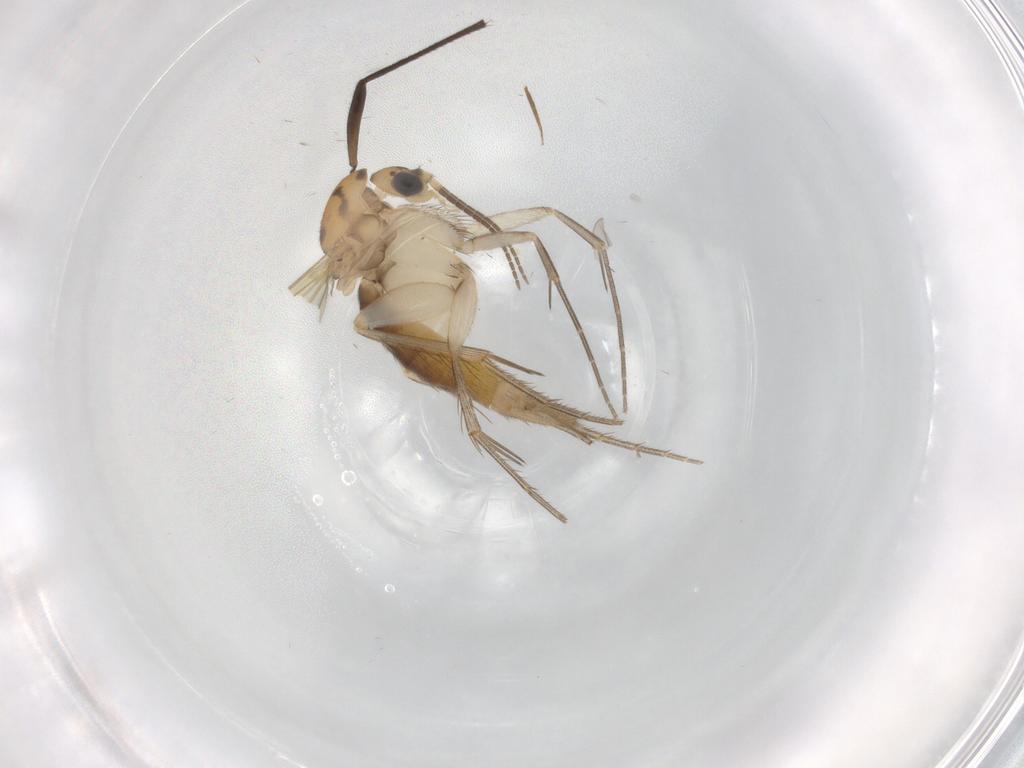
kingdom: Animalia
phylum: Arthropoda
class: Insecta
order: Diptera
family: Mycetophilidae
